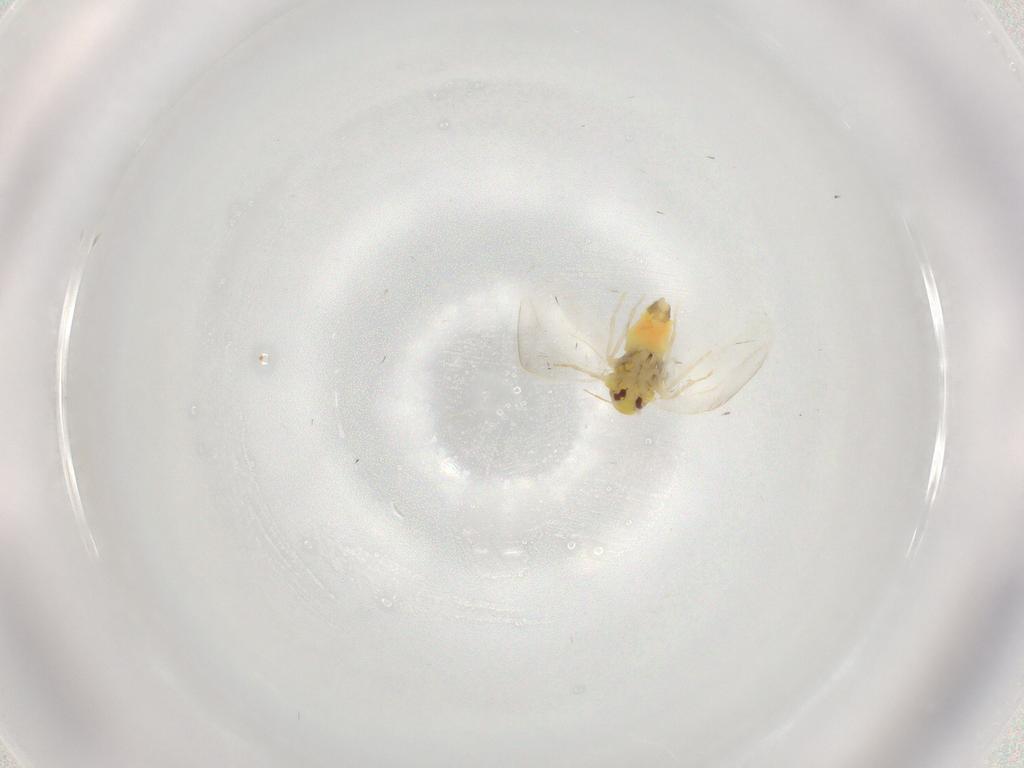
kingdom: Animalia
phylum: Arthropoda
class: Insecta
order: Hemiptera
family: Aleyrodidae
